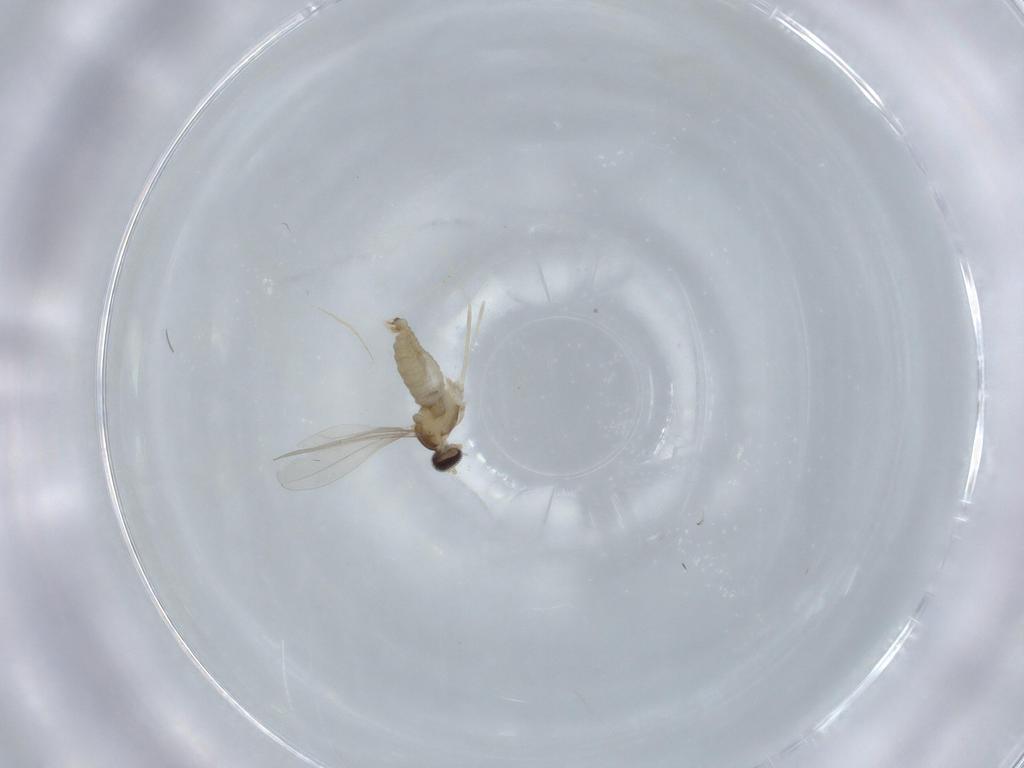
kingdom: Animalia
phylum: Arthropoda
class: Insecta
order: Diptera
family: Cecidomyiidae
